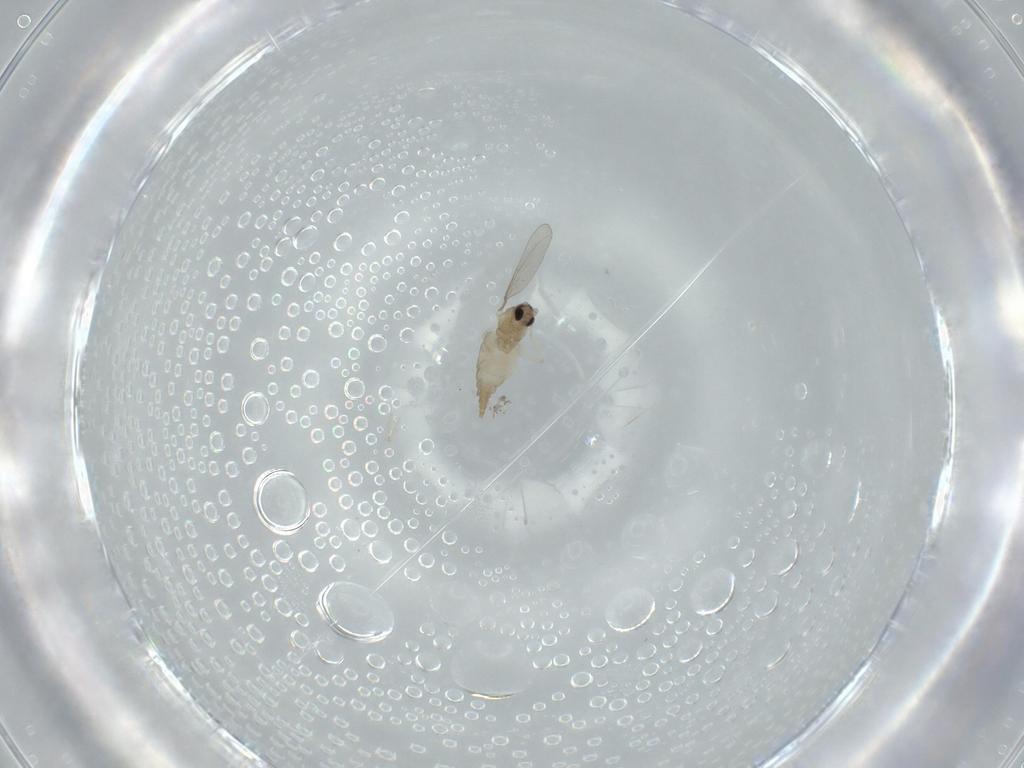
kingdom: Animalia
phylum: Arthropoda
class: Insecta
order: Diptera
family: Cecidomyiidae
